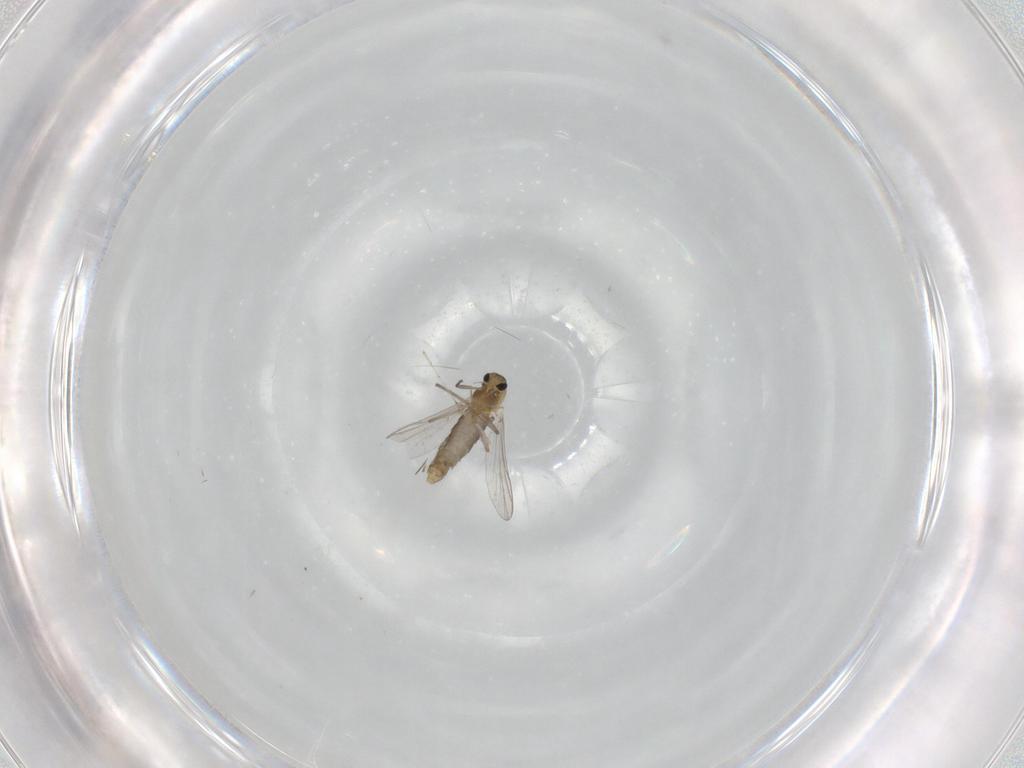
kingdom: Animalia
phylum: Arthropoda
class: Insecta
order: Diptera
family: Chironomidae
